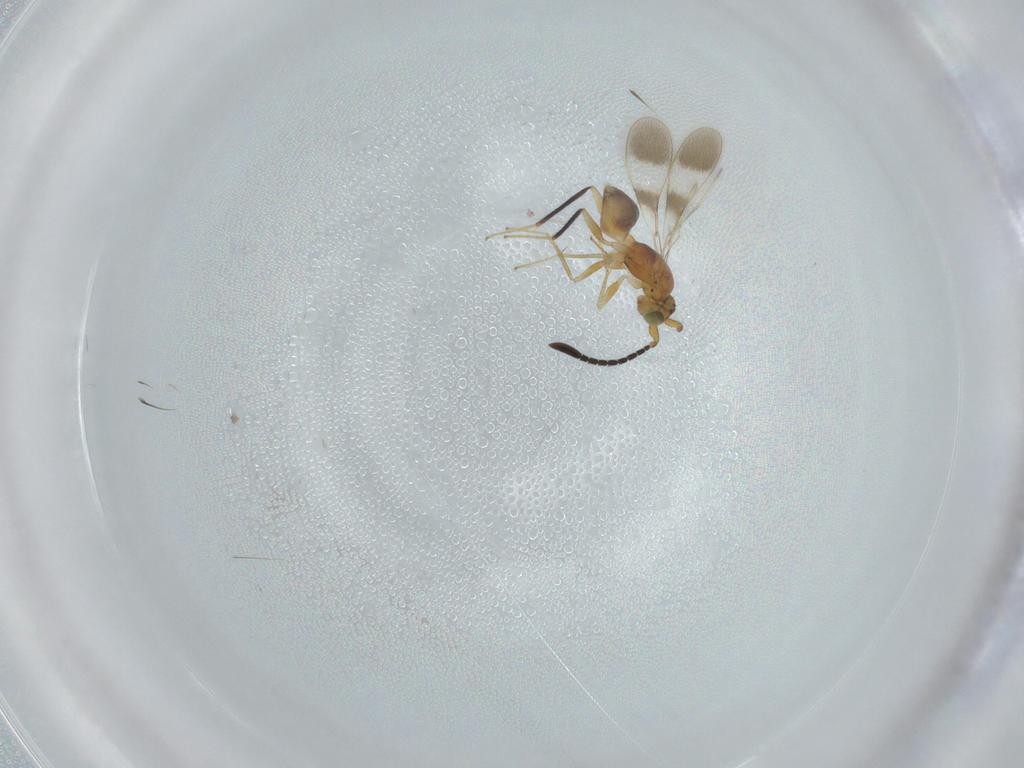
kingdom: Animalia
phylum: Arthropoda
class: Insecta
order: Hymenoptera
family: Mymaridae
